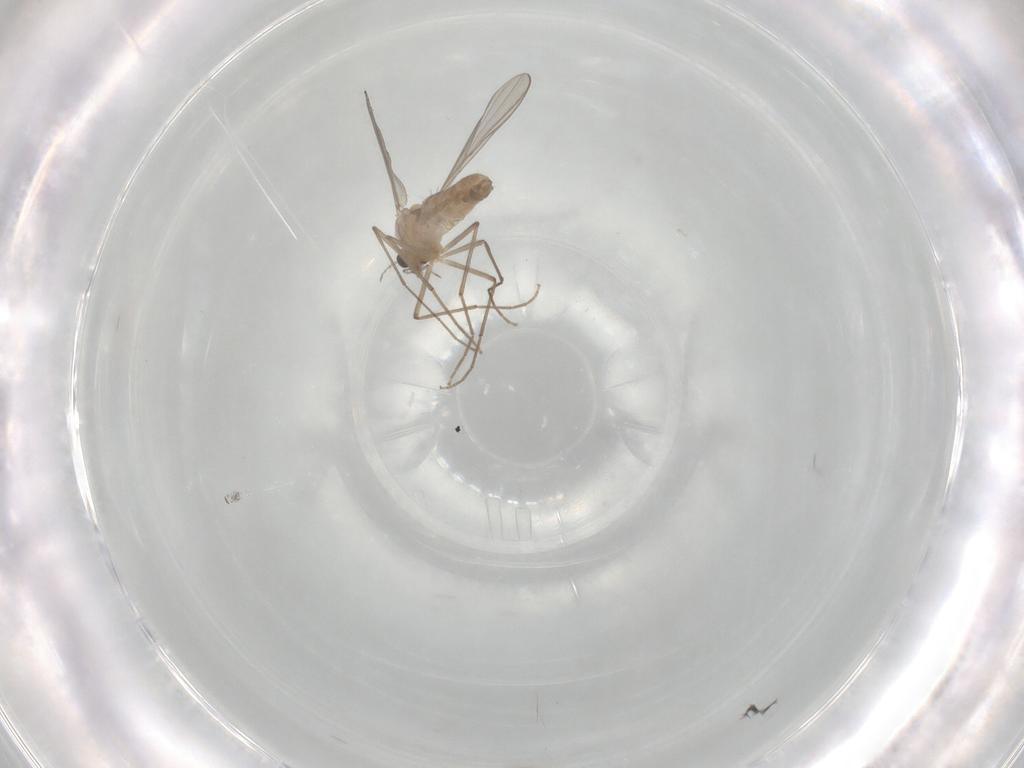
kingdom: Animalia
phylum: Arthropoda
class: Insecta
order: Diptera
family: Chironomidae
